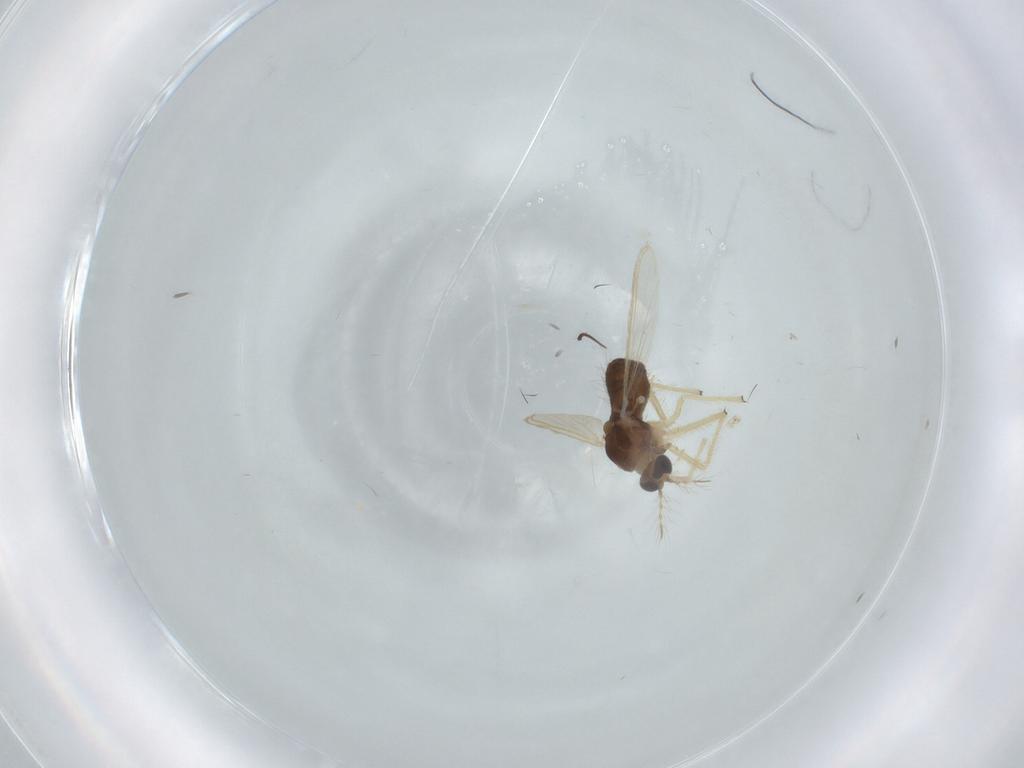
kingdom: Animalia
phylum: Arthropoda
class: Insecta
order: Diptera
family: Chironomidae
